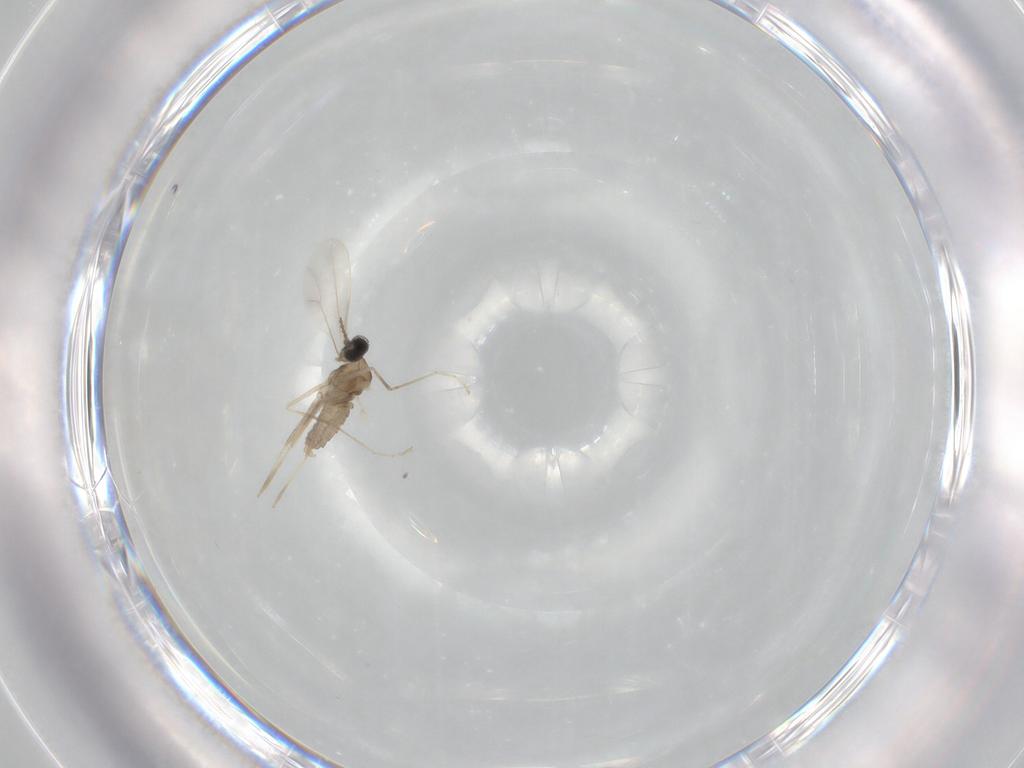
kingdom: Animalia
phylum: Arthropoda
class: Insecta
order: Diptera
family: Cecidomyiidae
